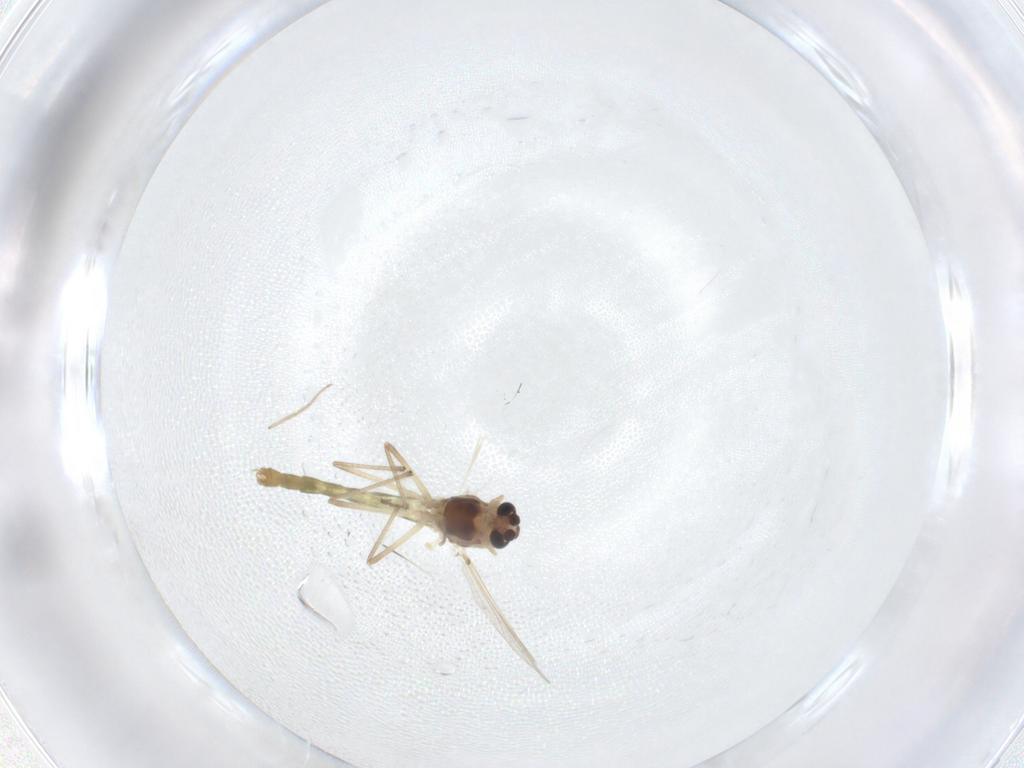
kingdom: Animalia
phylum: Arthropoda
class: Insecta
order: Diptera
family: Chironomidae
